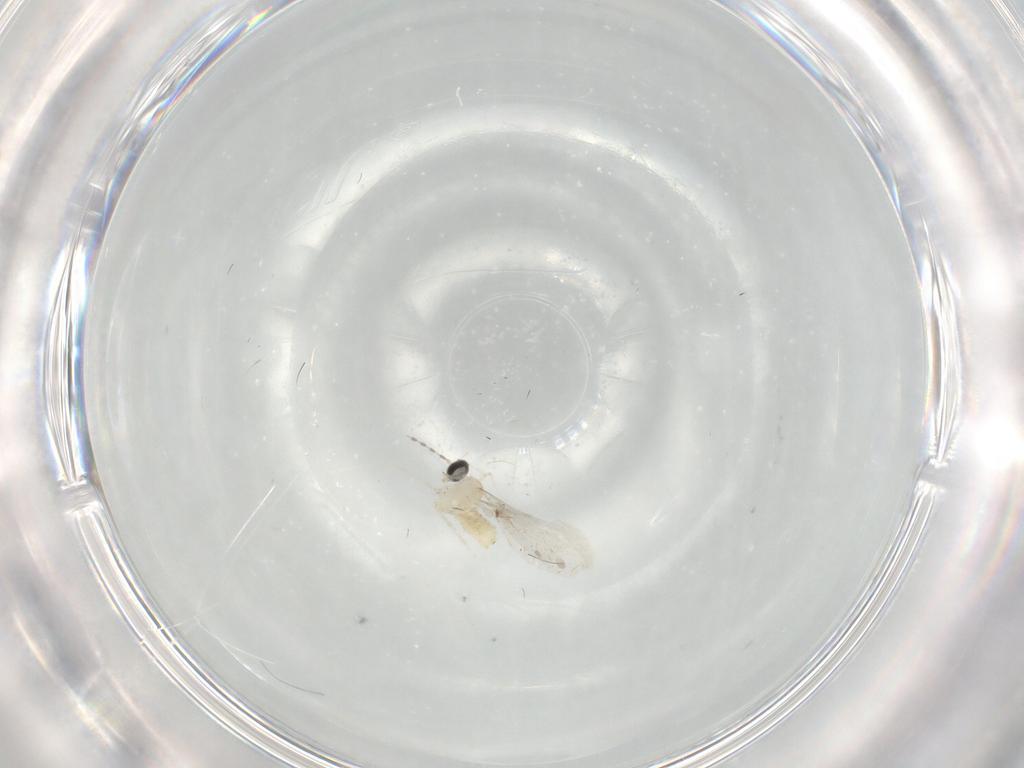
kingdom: Animalia
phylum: Arthropoda
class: Insecta
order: Diptera
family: Cecidomyiidae
